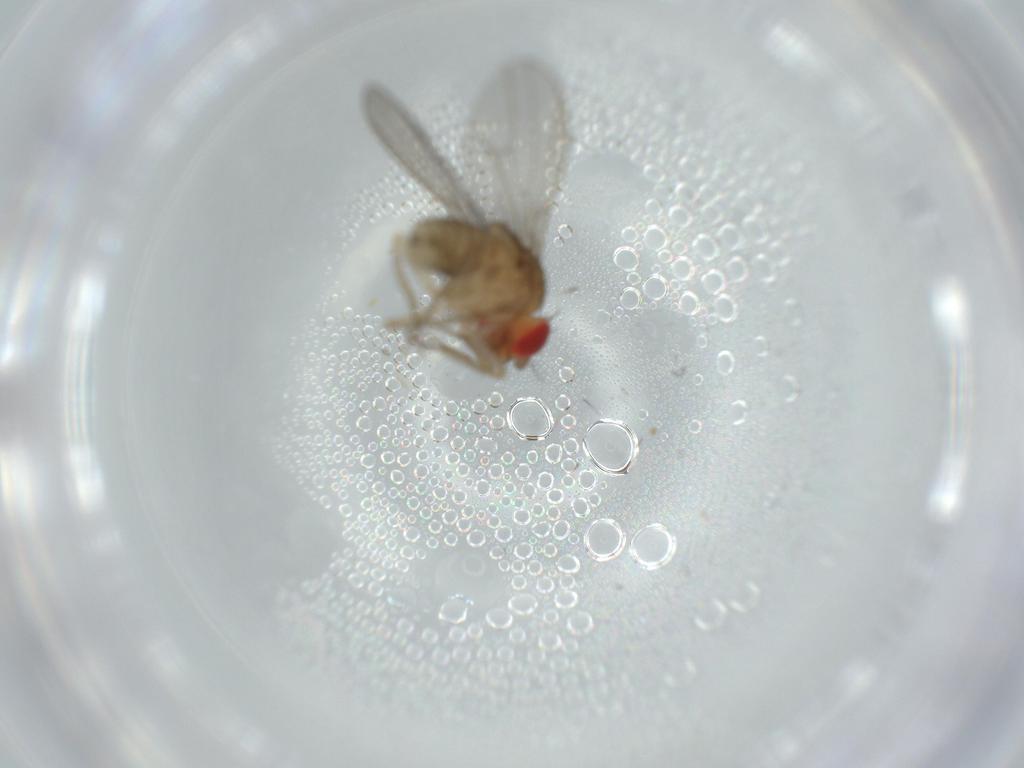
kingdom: Animalia
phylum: Arthropoda
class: Insecta
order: Diptera
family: Drosophilidae
